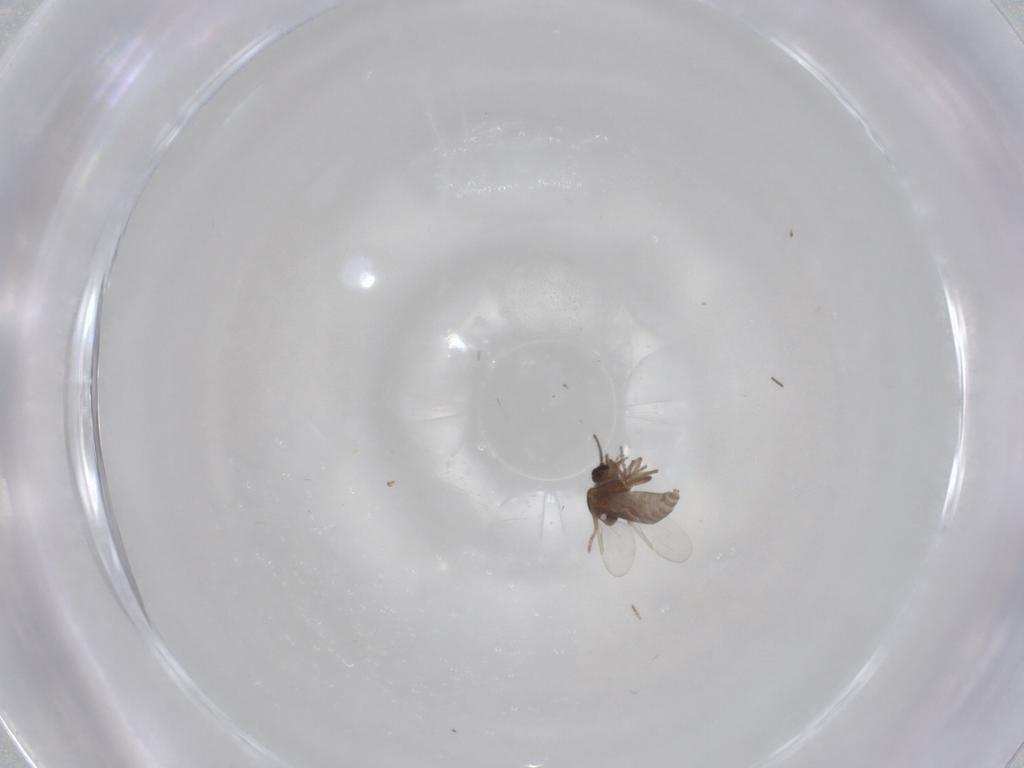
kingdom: Animalia
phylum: Arthropoda
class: Insecta
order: Diptera
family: Ceratopogonidae
